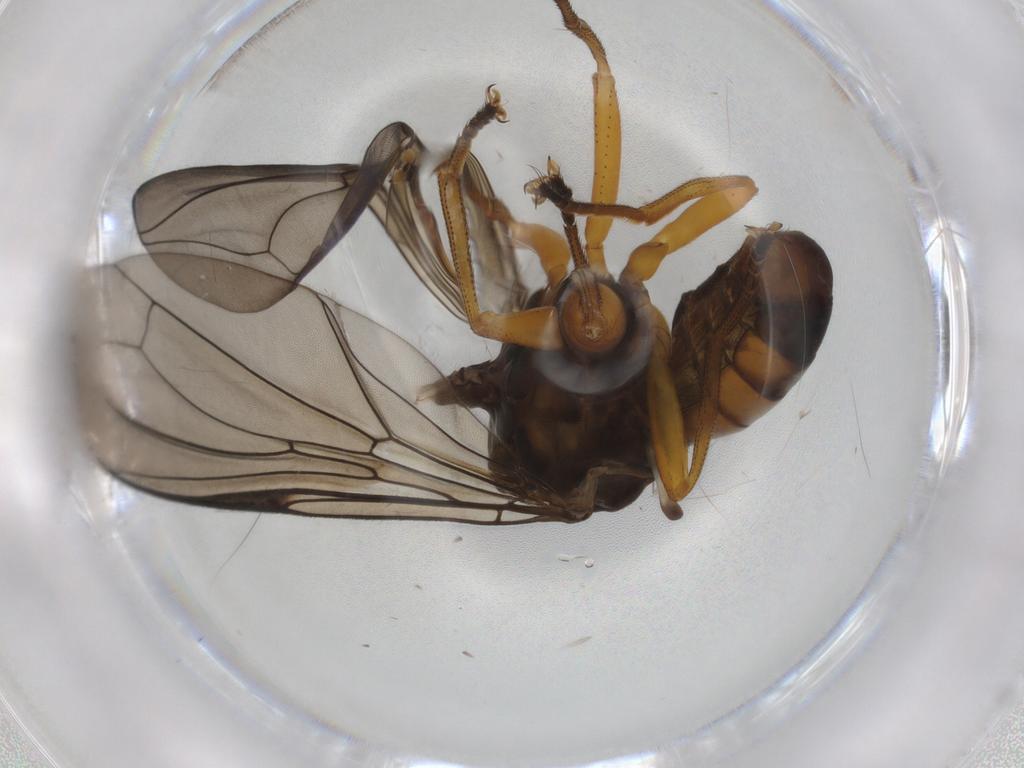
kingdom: Animalia
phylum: Arthropoda
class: Insecta
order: Diptera
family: Pipunculidae
